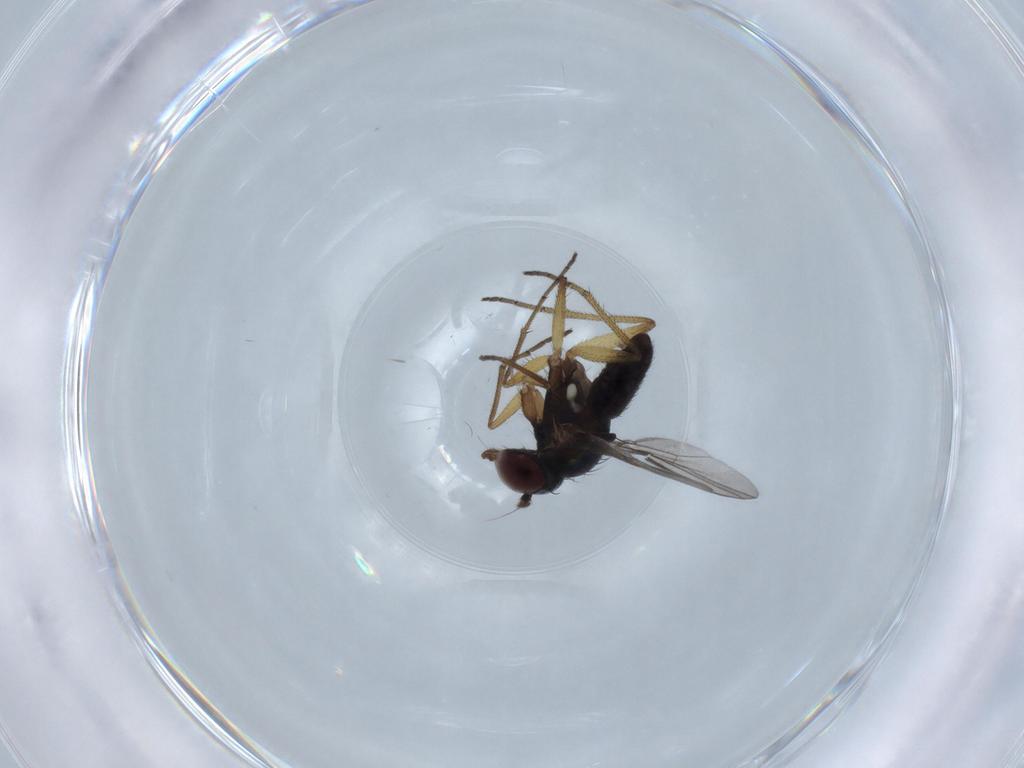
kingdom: Animalia
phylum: Arthropoda
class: Insecta
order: Diptera
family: Dolichopodidae
